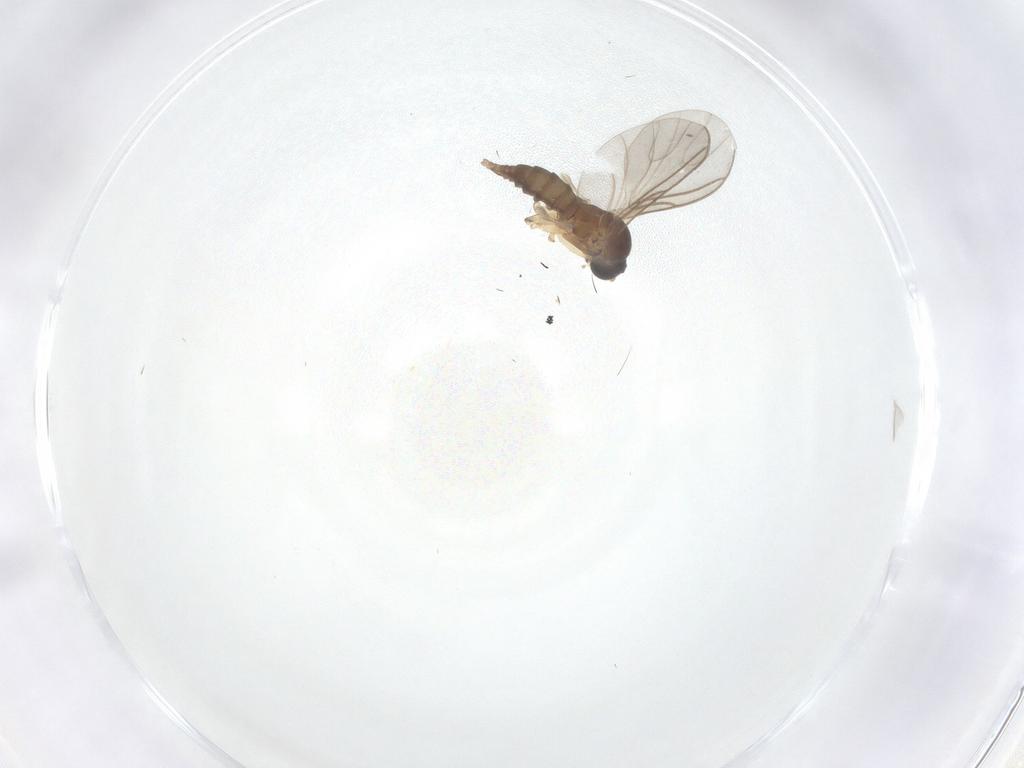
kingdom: Animalia
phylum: Arthropoda
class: Insecta
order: Diptera
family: Sciaridae
